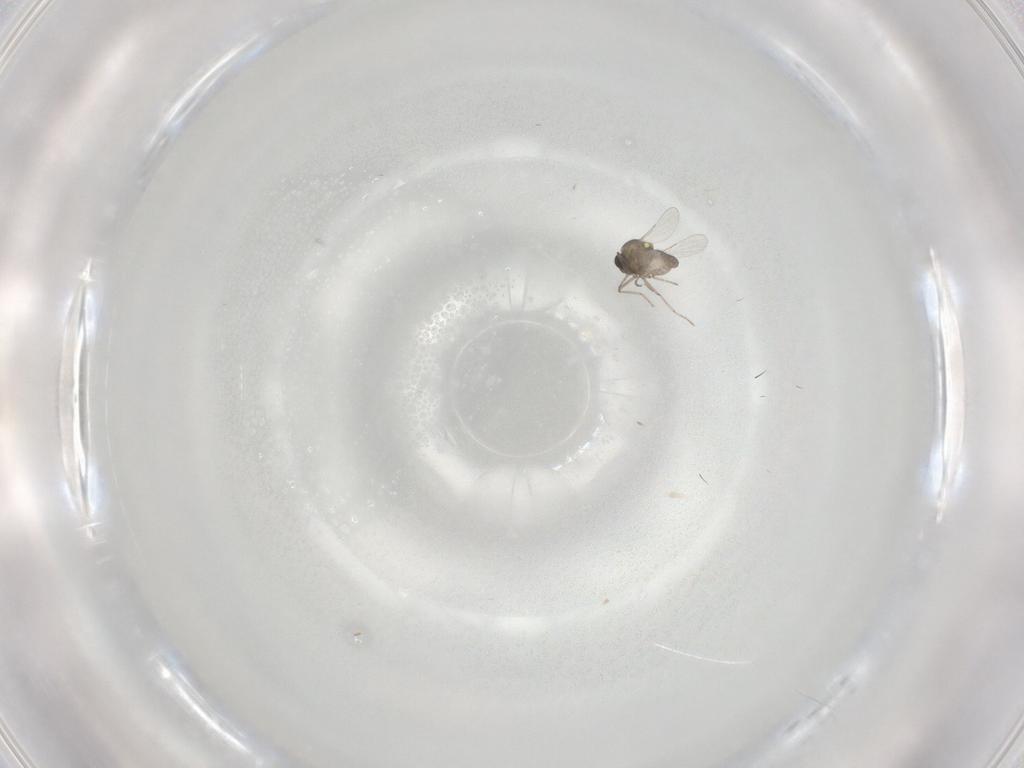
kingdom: Animalia
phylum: Arthropoda
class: Insecta
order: Diptera
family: Ceratopogonidae
